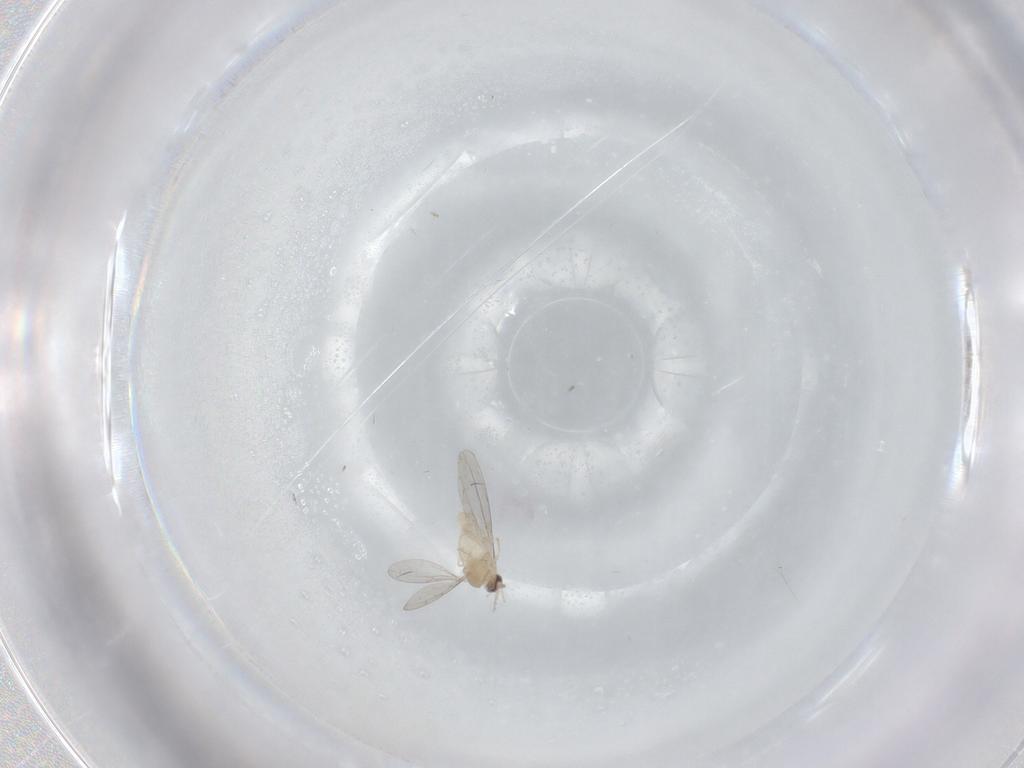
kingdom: Animalia
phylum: Arthropoda
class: Insecta
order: Diptera
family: Cecidomyiidae
